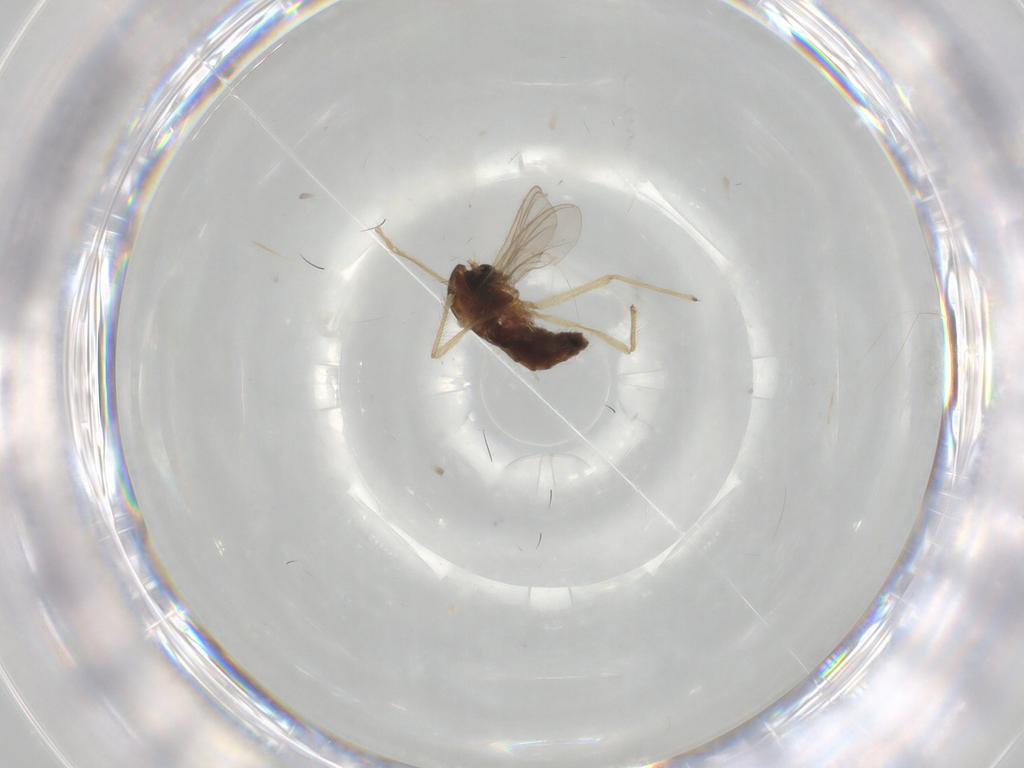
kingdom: Animalia
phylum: Arthropoda
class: Insecta
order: Diptera
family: Chironomidae
